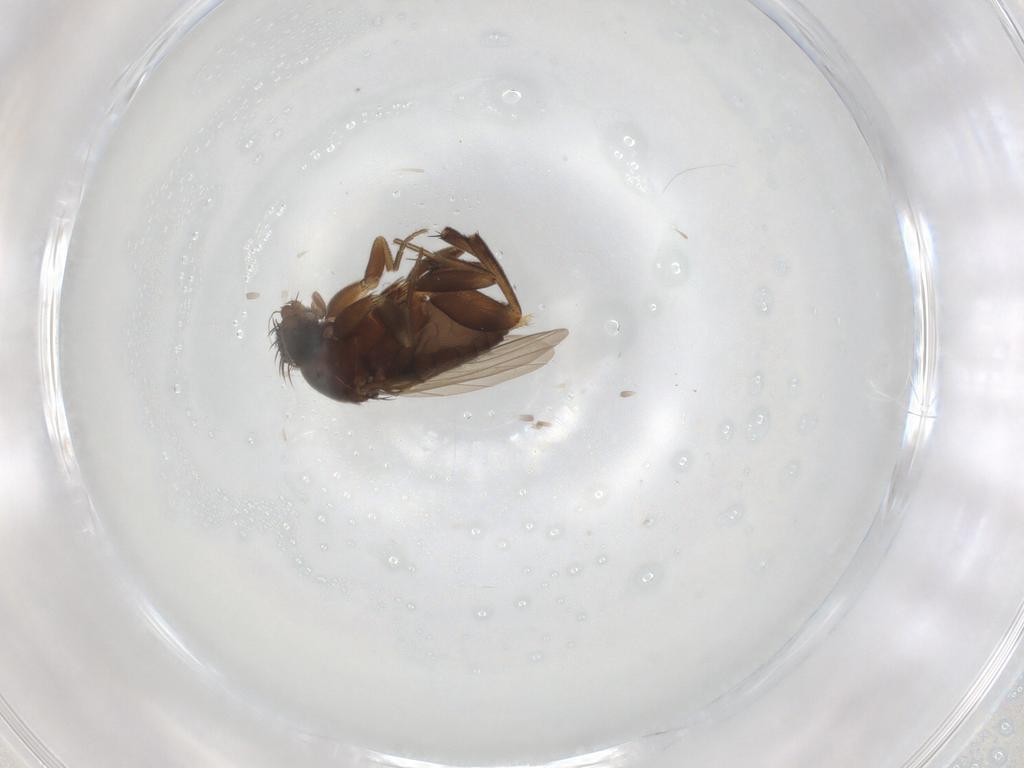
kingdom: Animalia
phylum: Arthropoda
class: Insecta
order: Diptera
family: Phoridae
